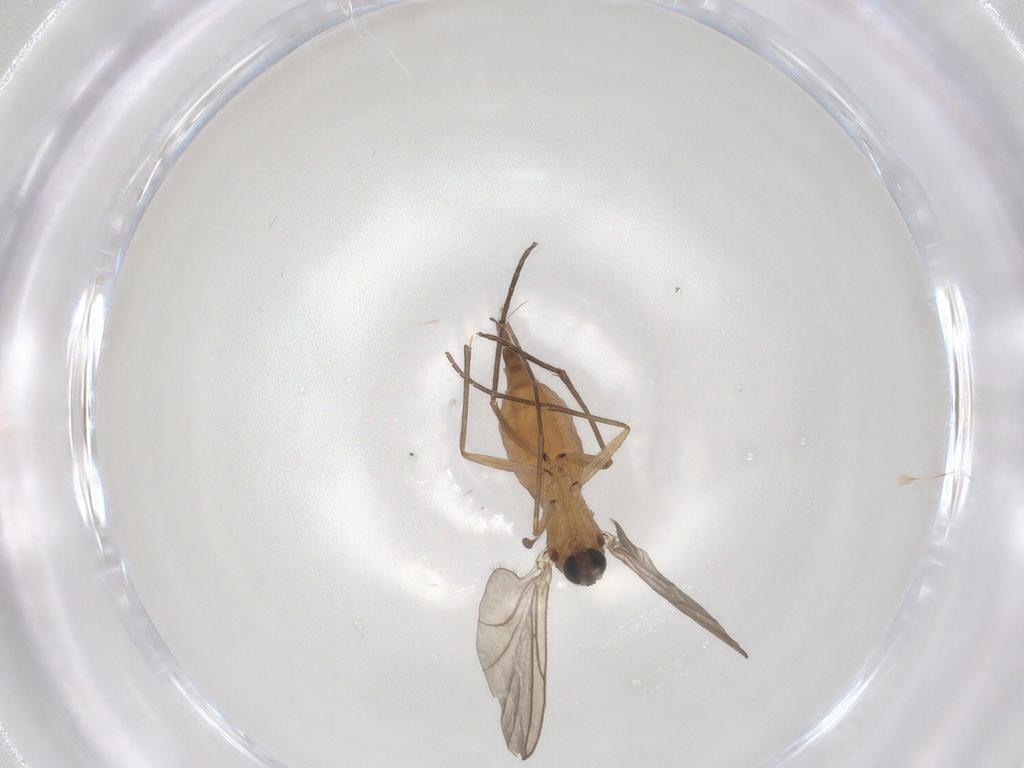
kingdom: Animalia
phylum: Arthropoda
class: Insecta
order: Diptera
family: Sciaridae
